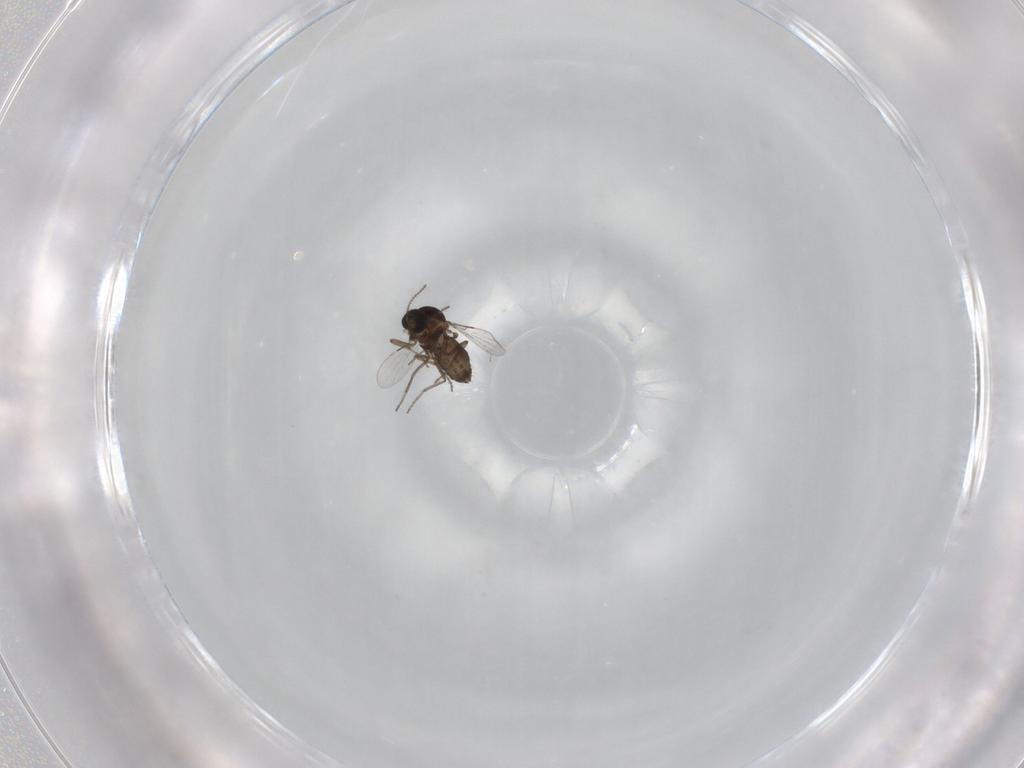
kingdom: Animalia
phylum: Arthropoda
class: Insecta
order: Diptera
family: Ceratopogonidae
